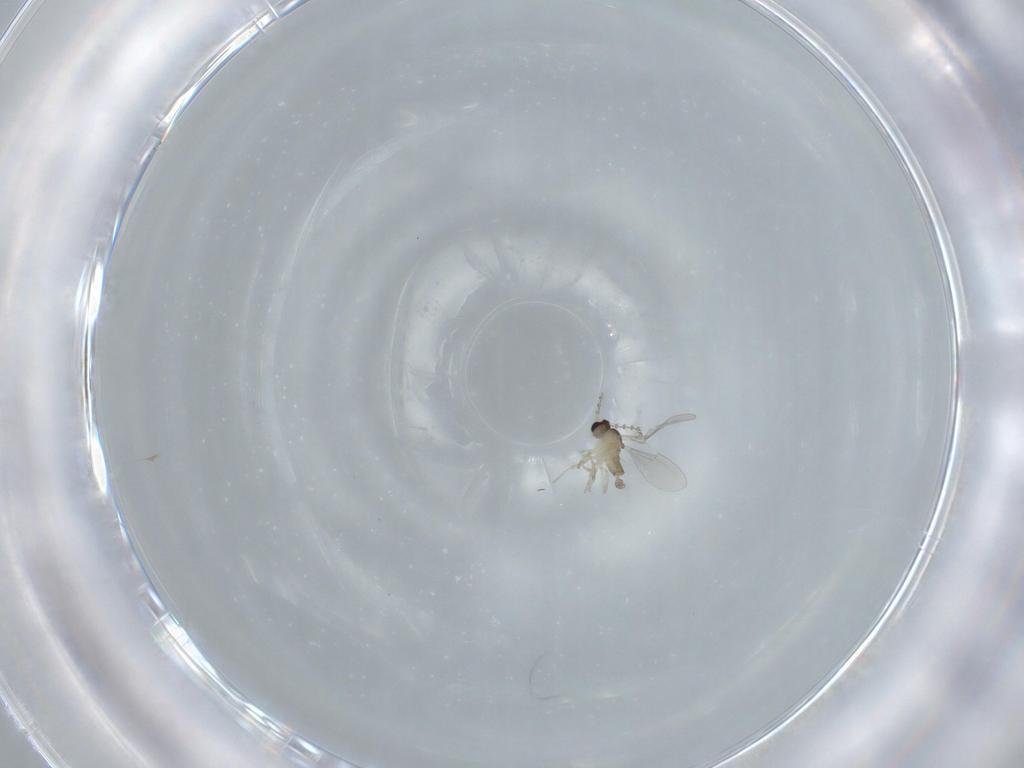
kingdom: Animalia
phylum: Arthropoda
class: Insecta
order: Diptera
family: Cecidomyiidae
